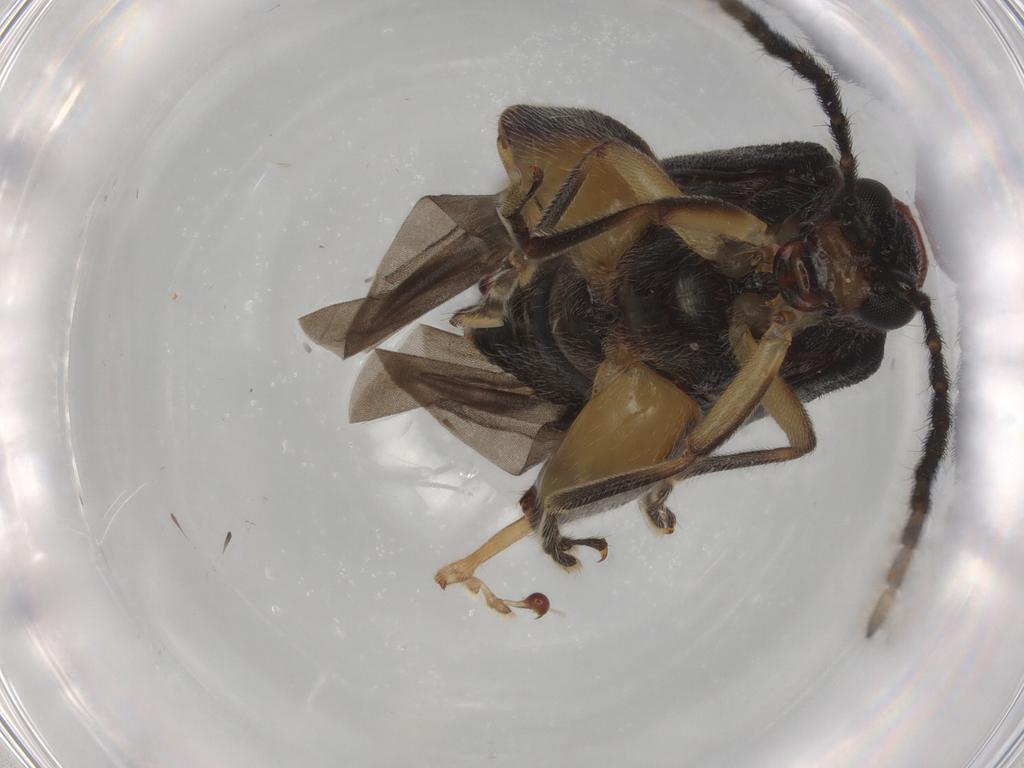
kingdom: Animalia
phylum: Arthropoda
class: Insecta
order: Coleoptera
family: Chrysomelidae
